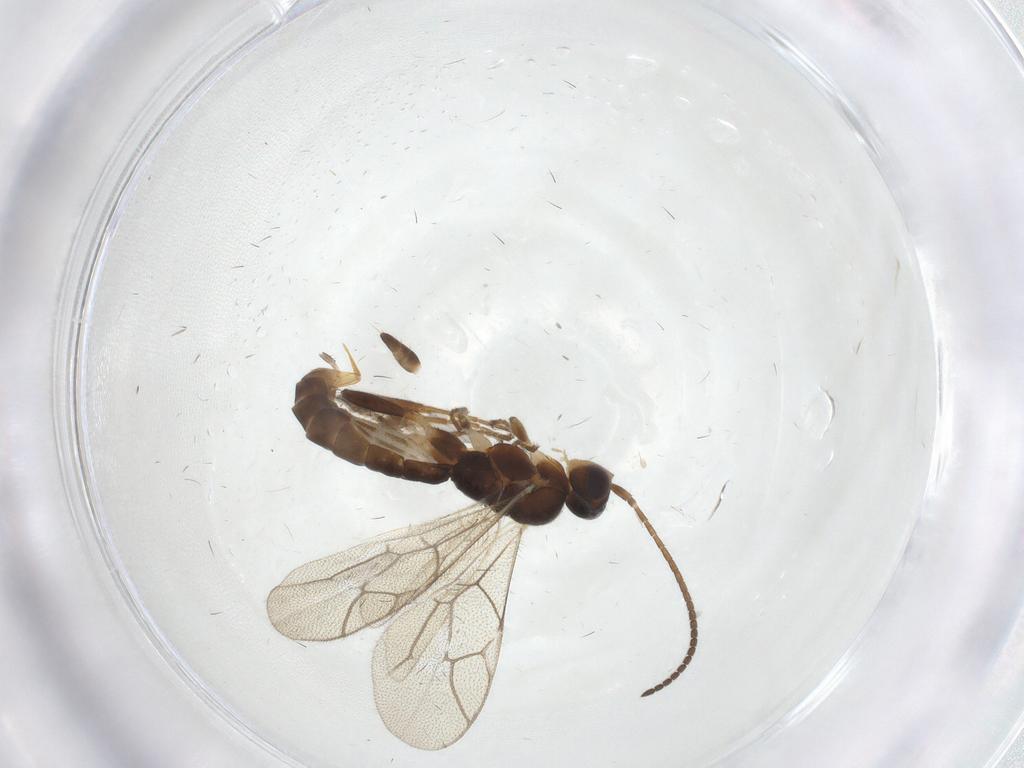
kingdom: Animalia
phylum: Arthropoda
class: Insecta
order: Hymenoptera
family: Ichneumonidae
